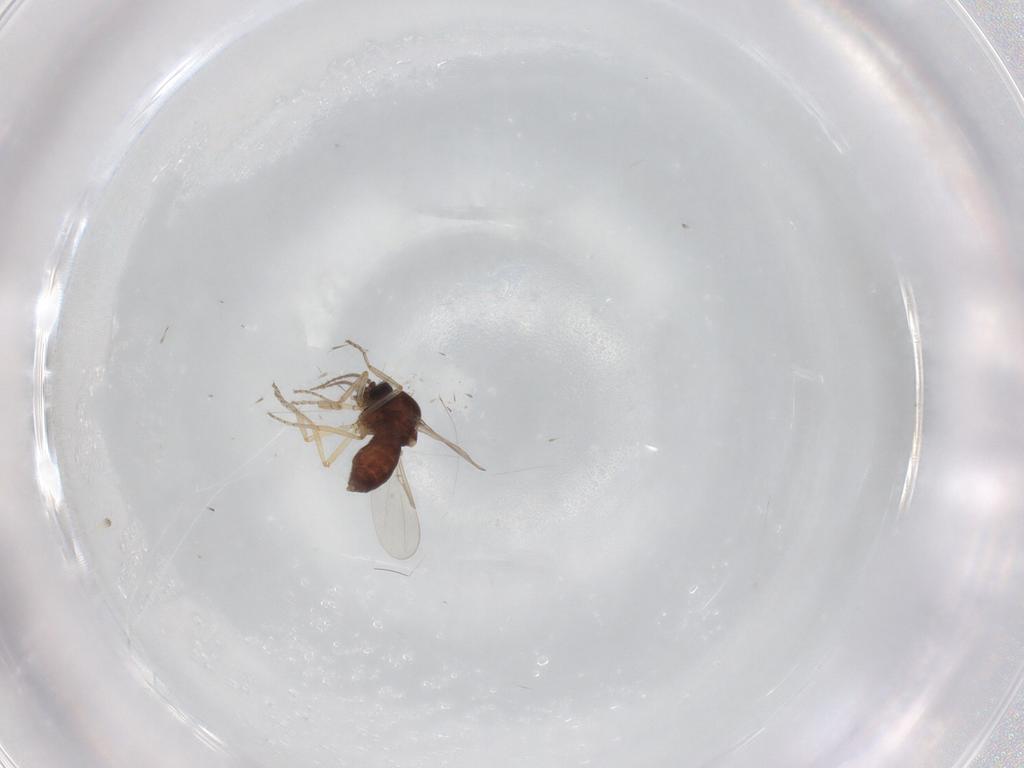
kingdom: Animalia
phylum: Arthropoda
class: Insecta
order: Diptera
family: Ceratopogonidae
